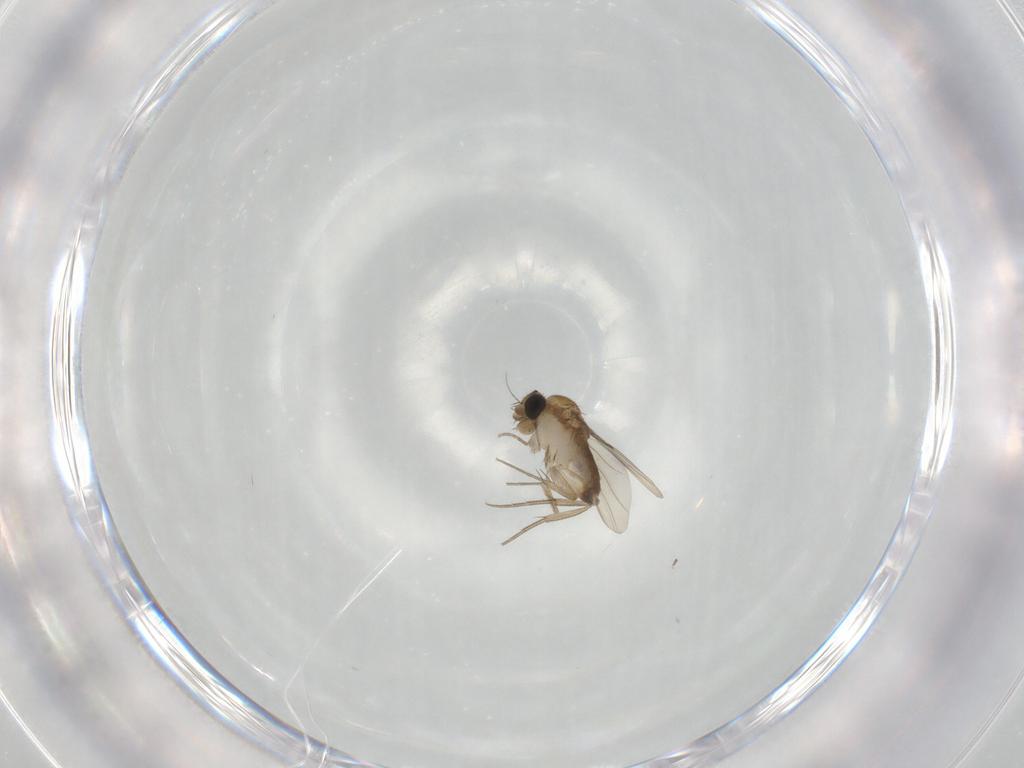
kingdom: Animalia
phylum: Arthropoda
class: Insecta
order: Diptera
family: Phoridae
